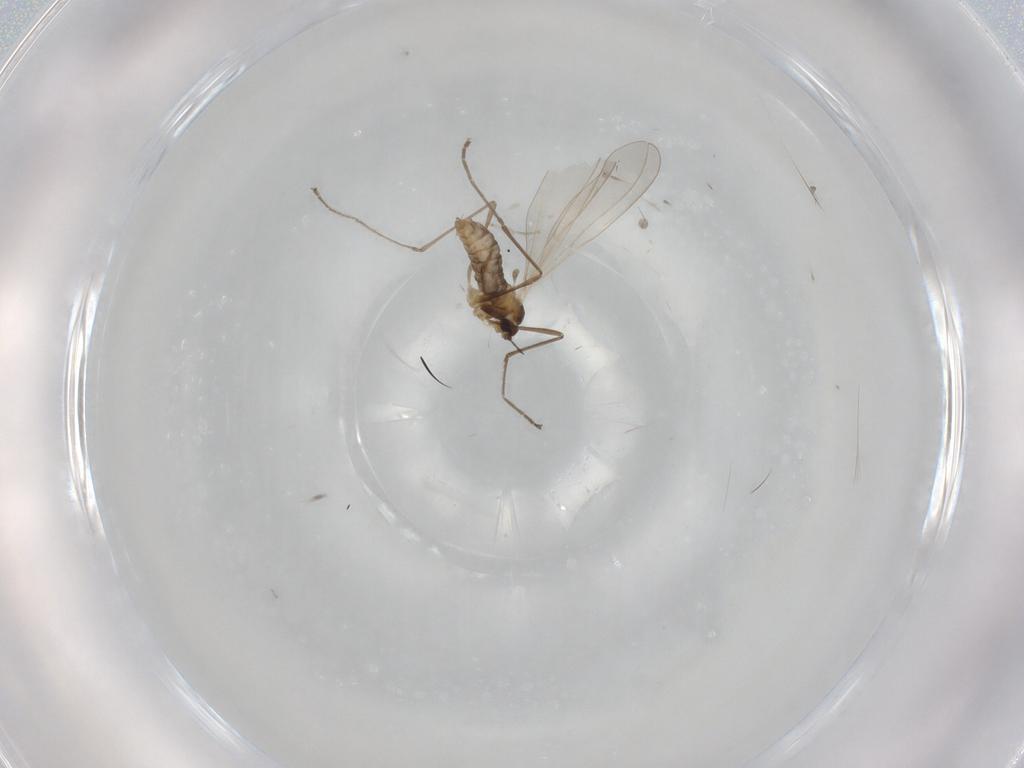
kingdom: Animalia
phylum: Arthropoda
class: Insecta
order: Diptera
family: Cecidomyiidae
